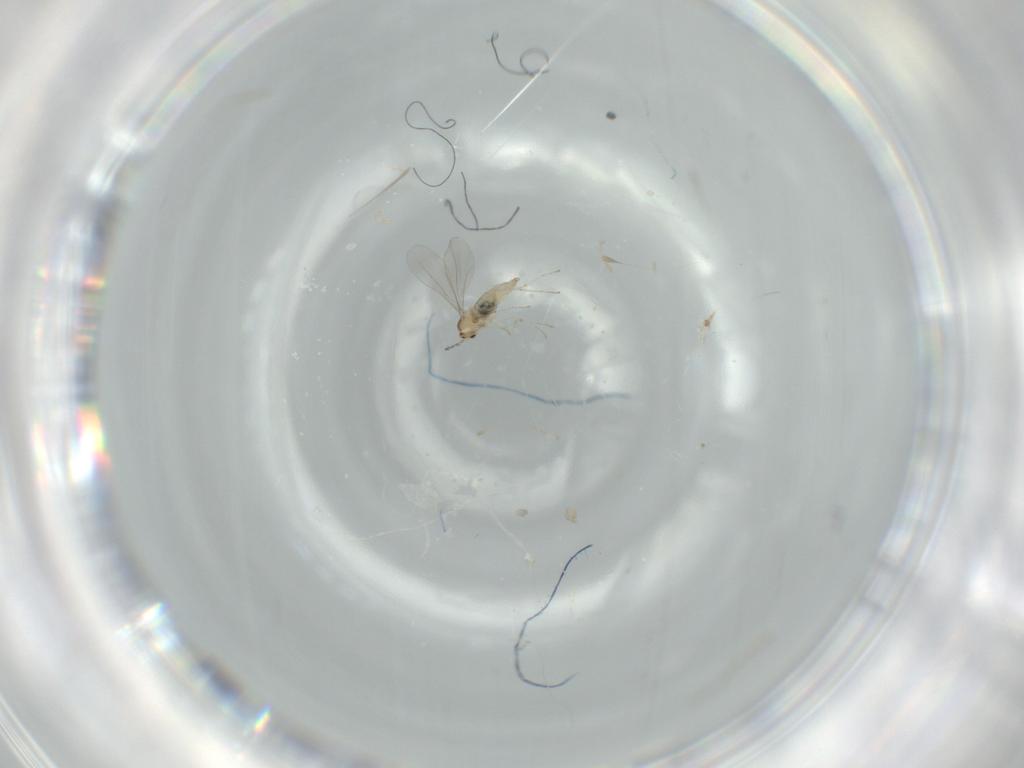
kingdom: Animalia
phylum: Arthropoda
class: Insecta
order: Diptera
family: Cecidomyiidae
